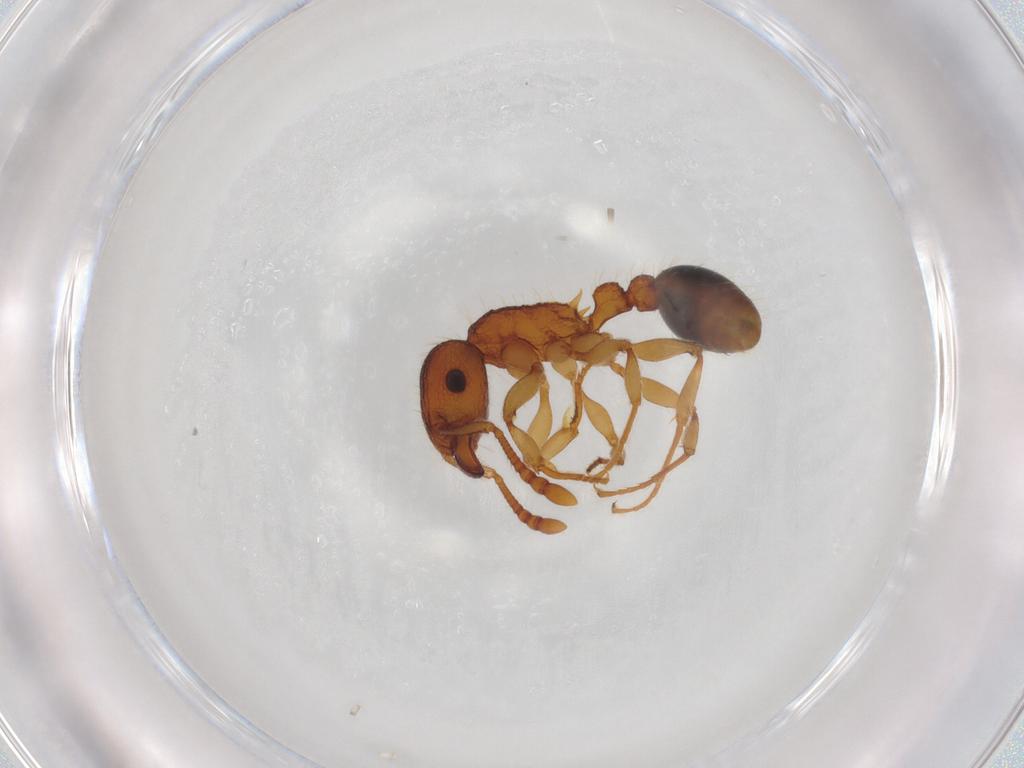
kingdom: Animalia
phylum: Arthropoda
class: Insecta
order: Hymenoptera
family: Formicidae
